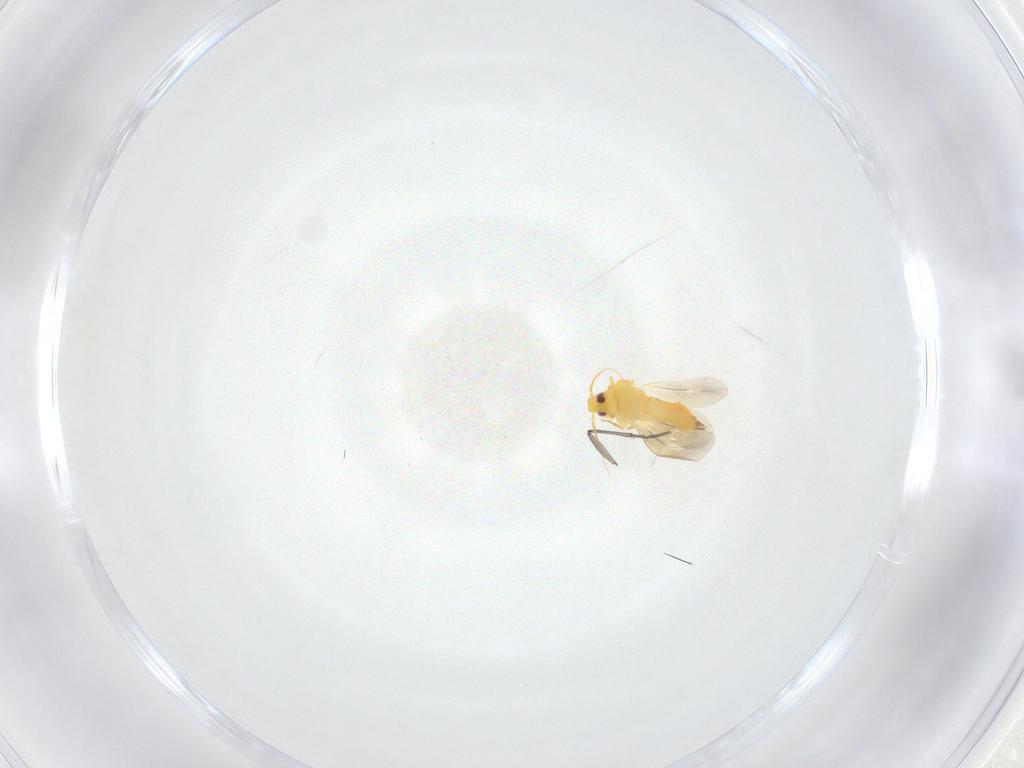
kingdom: Animalia
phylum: Arthropoda
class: Insecta
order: Hemiptera
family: Aleyrodidae
